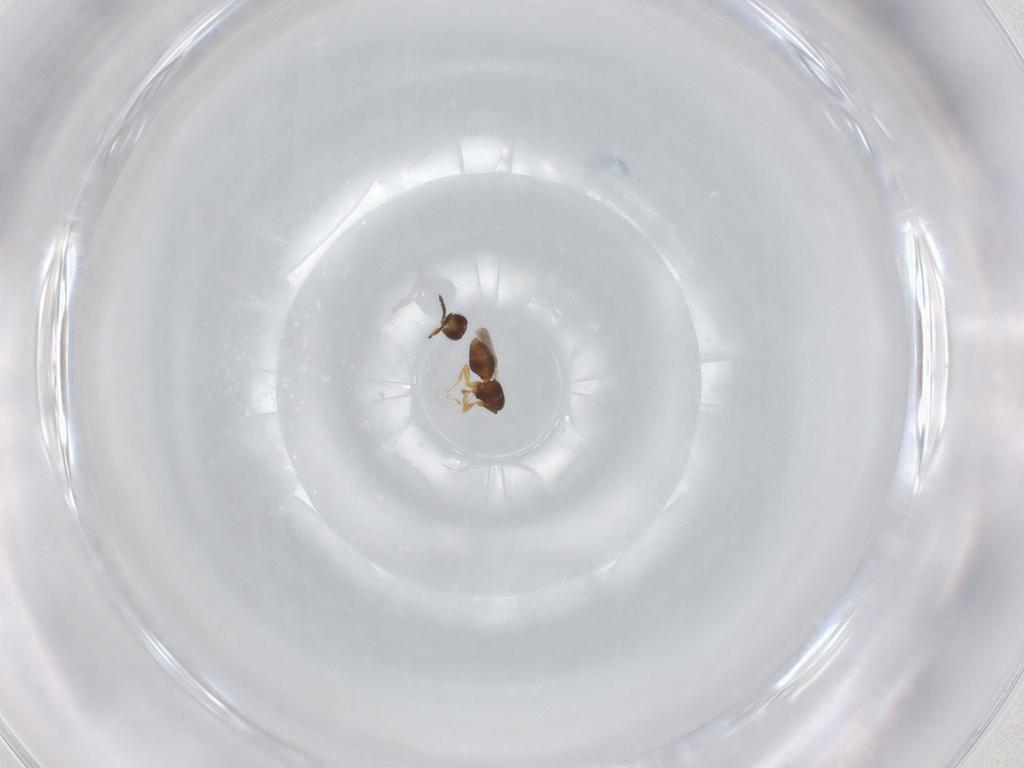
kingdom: Animalia
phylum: Arthropoda
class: Insecta
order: Hymenoptera
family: Ceraphronidae
